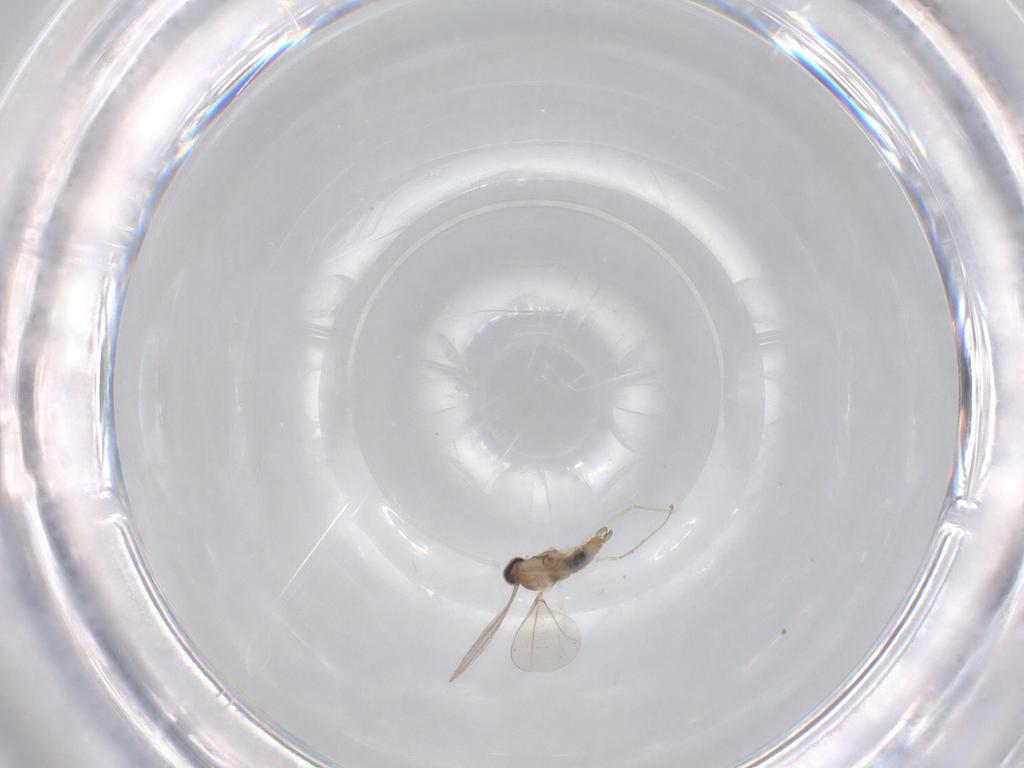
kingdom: Animalia
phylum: Arthropoda
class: Insecta
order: Diptera
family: Cecidomyiidae
